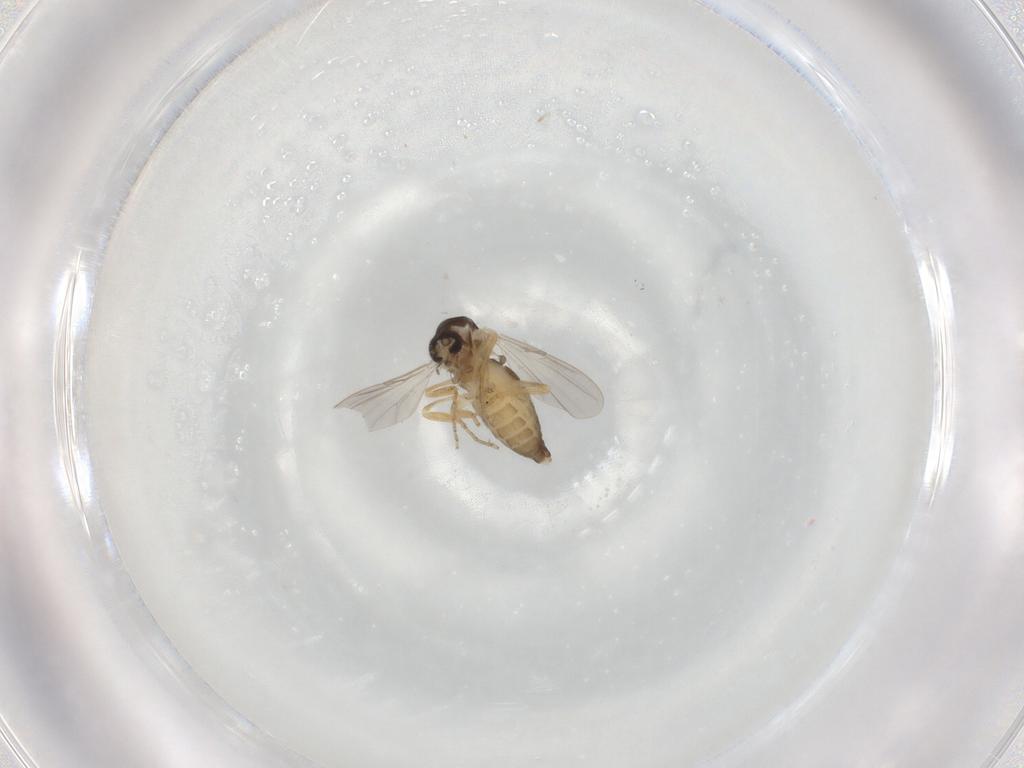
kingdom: Animalia
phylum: Arthropoda
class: Insecta
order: Diptera
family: Ceratopogonidae
